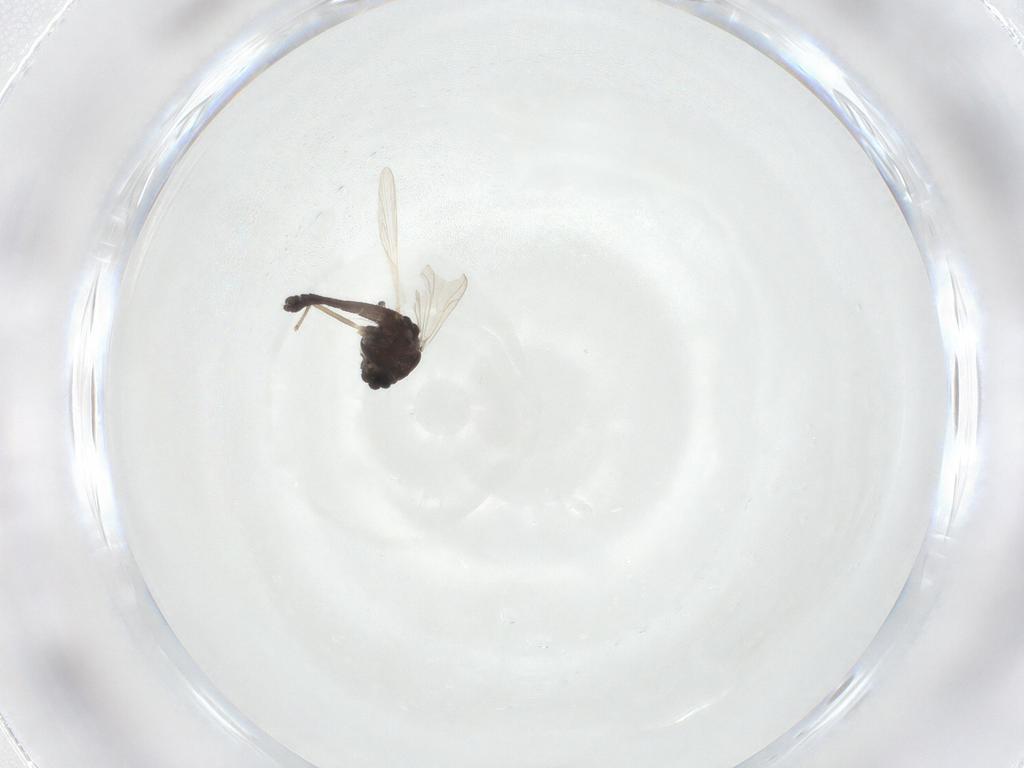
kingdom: Animalia
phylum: Arthropoda
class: Insecta
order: Diptera
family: Chironomidae
